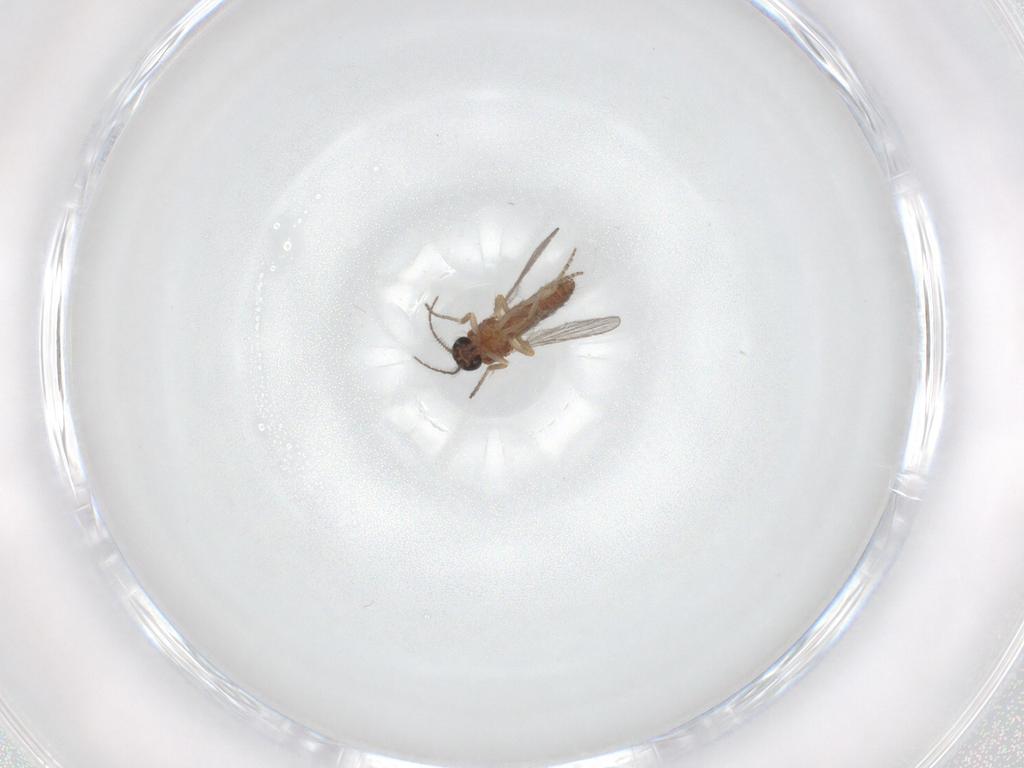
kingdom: Animalia
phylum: Arthropoda
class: Insecta
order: Diptera
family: Ceratopogonidae
